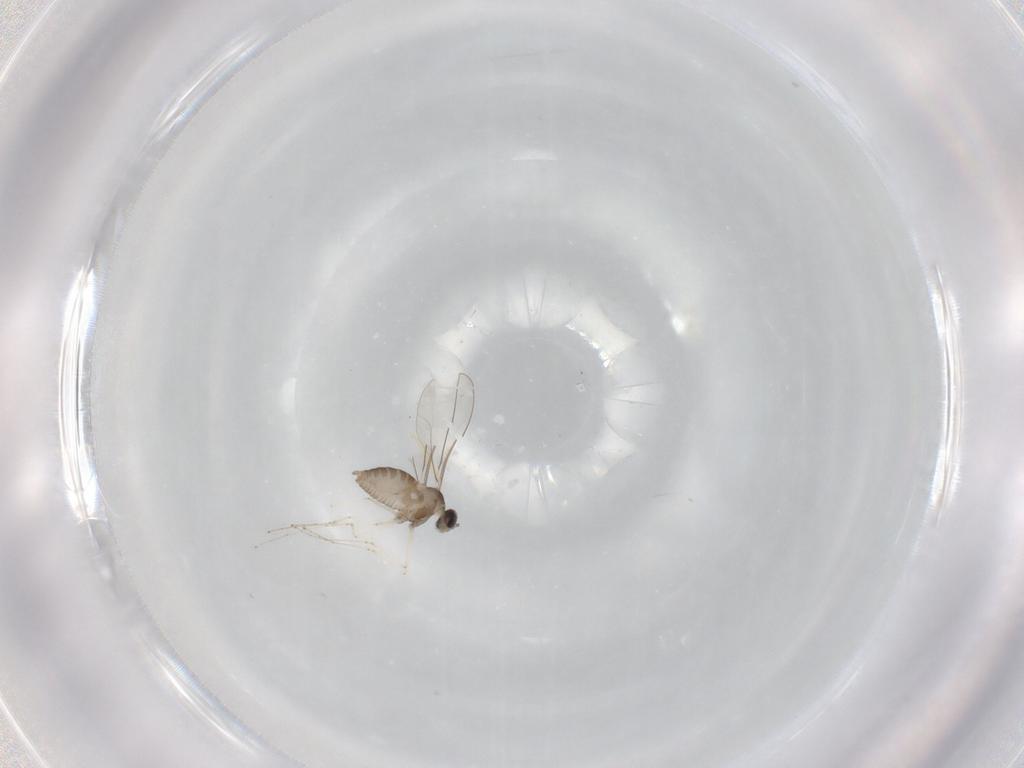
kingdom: Animalia
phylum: Arthropoda
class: Insecta
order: Diptera
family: Cecidomyiidae
